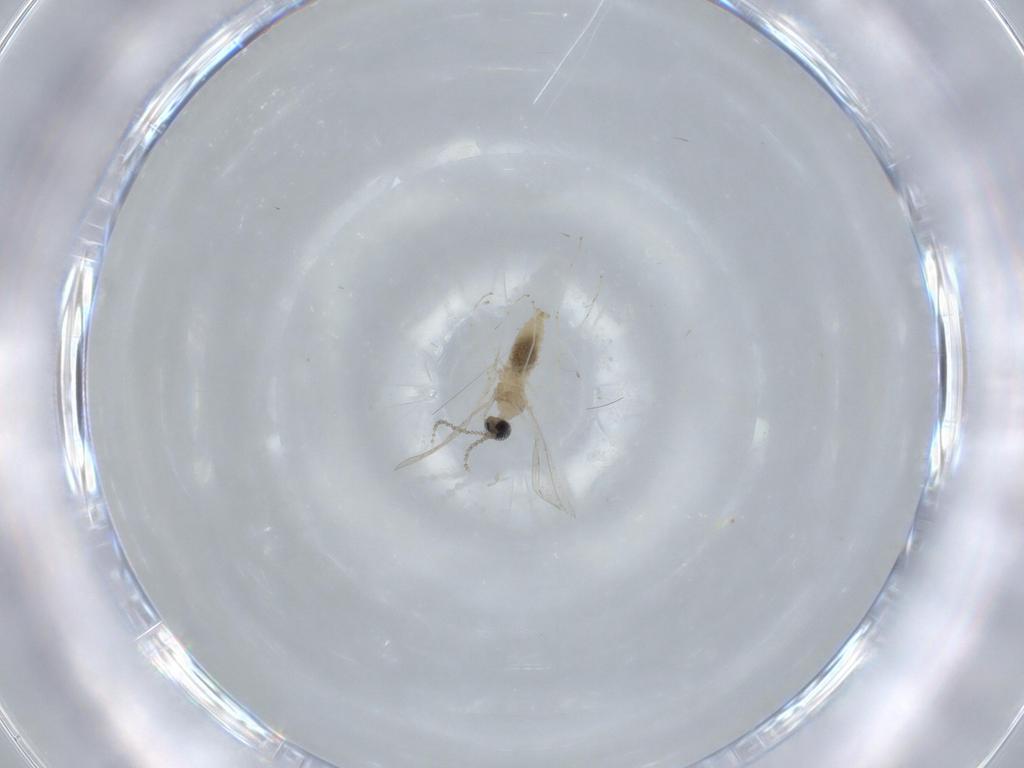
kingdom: Animalia
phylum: Arthropoda
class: Insecta
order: Diptera
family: Cecidomyiidae
